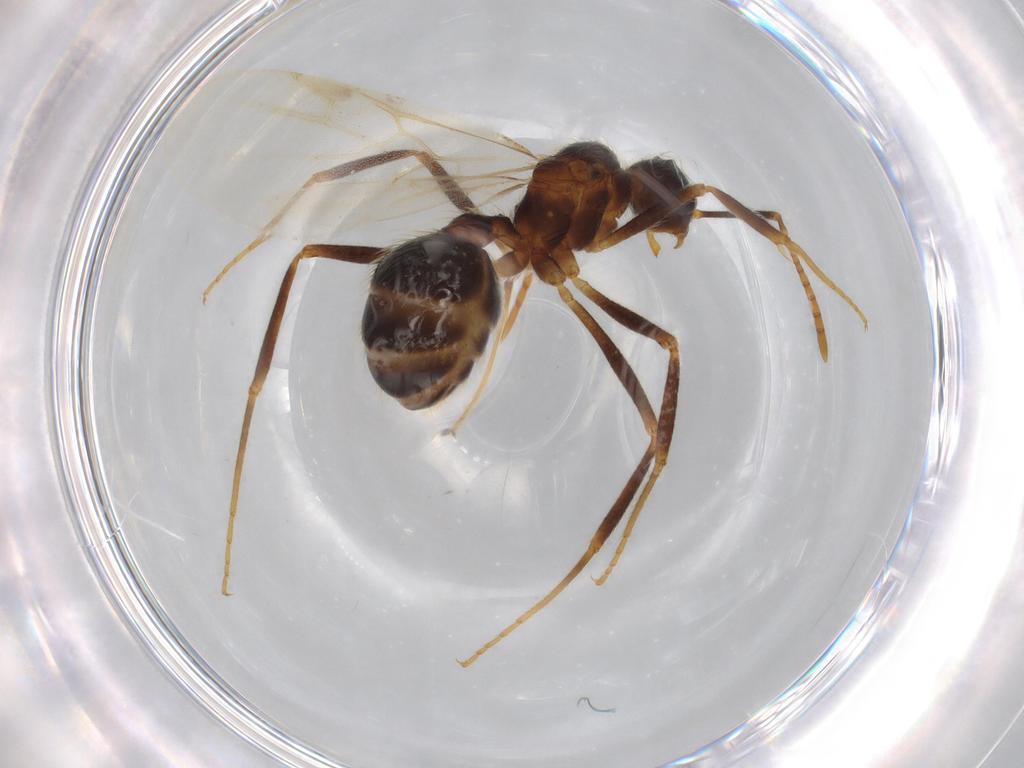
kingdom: Animalia
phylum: Arthropoda
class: Insecta
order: Hymenoptera
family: Formicidae
